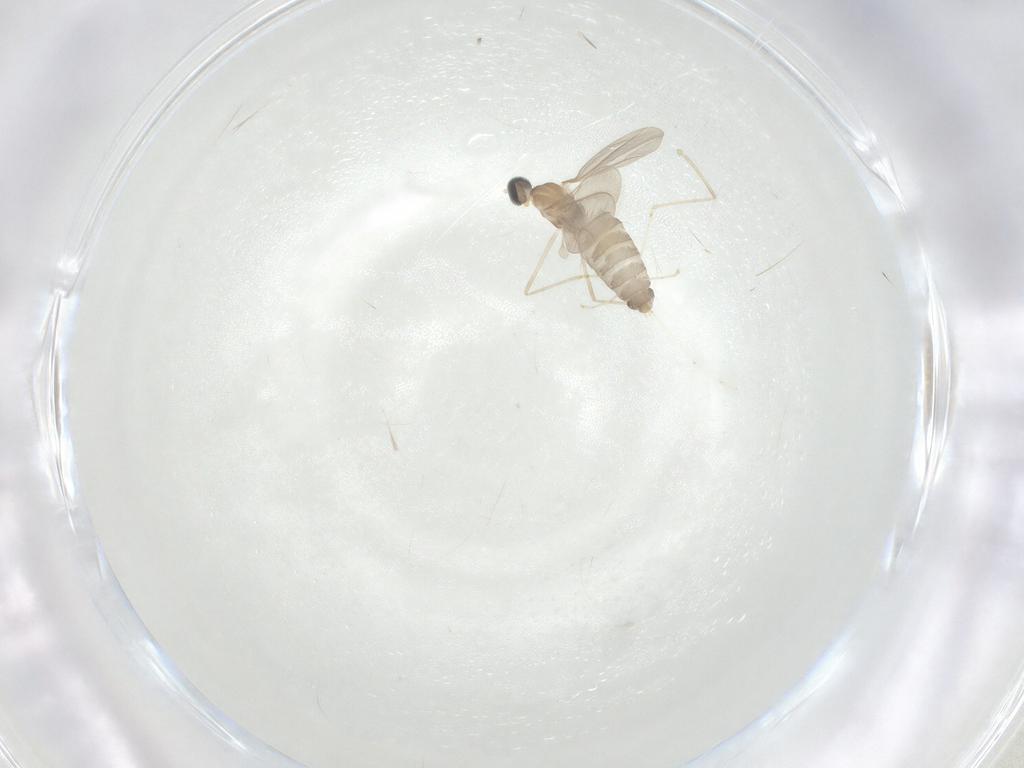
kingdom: Animalia
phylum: Arthropoda
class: Insecta
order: Diptera
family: Cecidomyiidae
